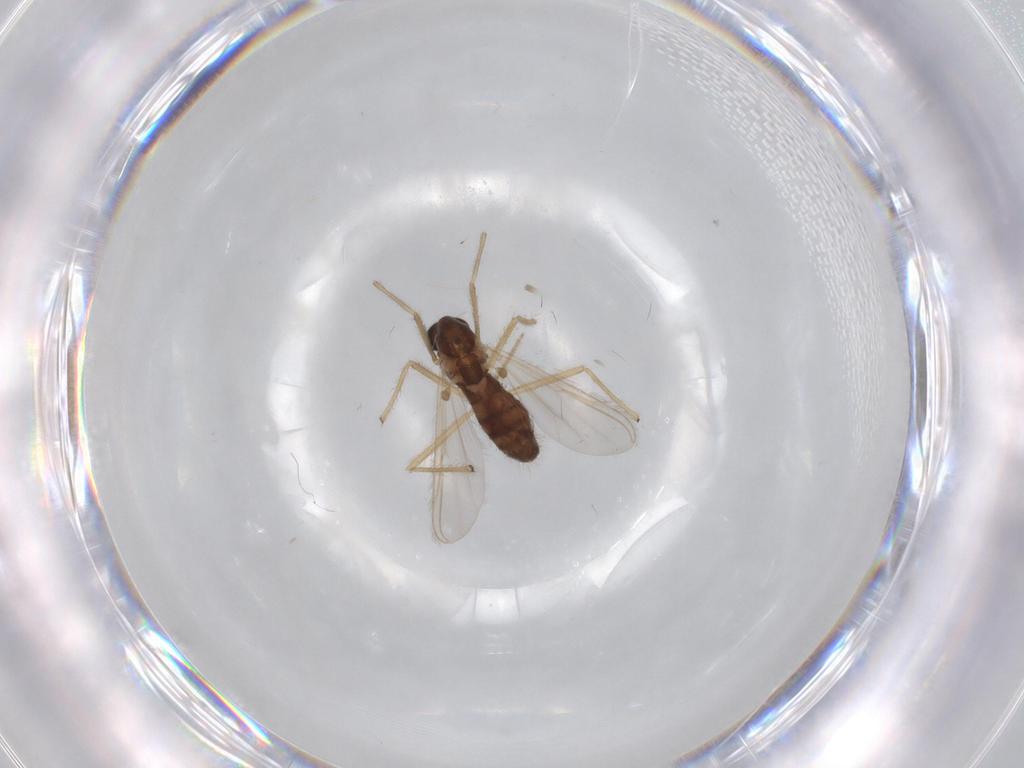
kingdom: Animalia
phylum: Arthropoda
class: Insecta
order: Diptera
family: Chironomidae
